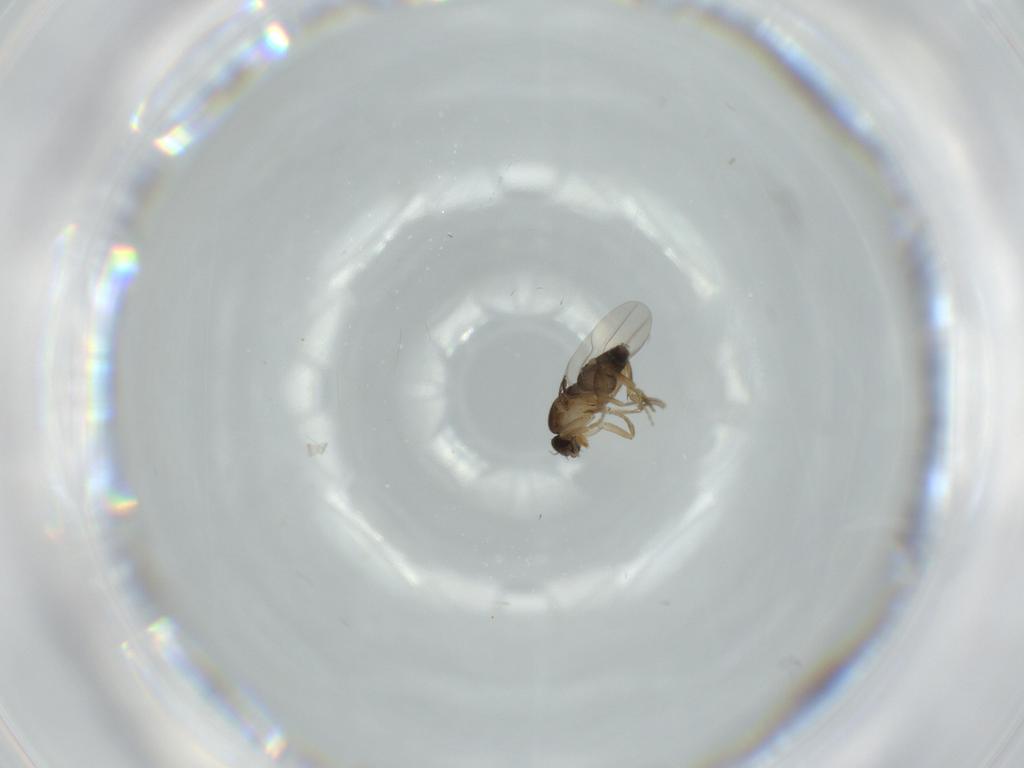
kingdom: Animalia
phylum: Arthropoda
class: Insecta
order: Diptera
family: Phoridae
